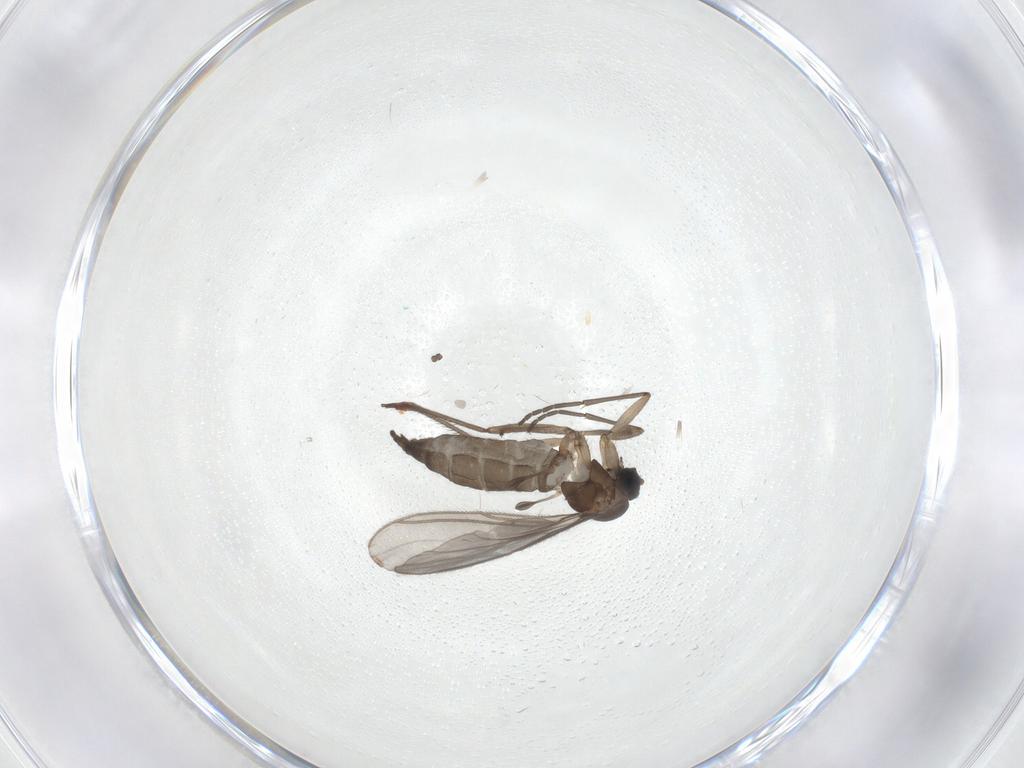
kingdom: Animalia
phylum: Arthropoda
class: Insecta
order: Diptera
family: Sciaridae
